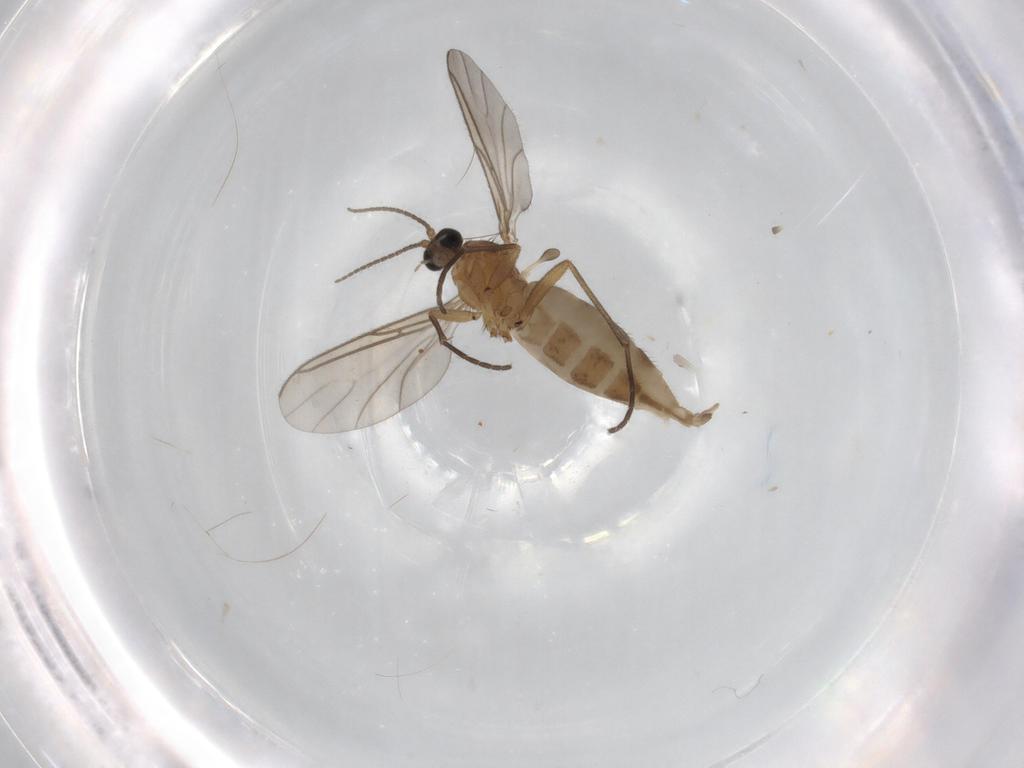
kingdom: Animalia
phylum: Arthropoda
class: Insecta
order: Diptera
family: Sciaridae
